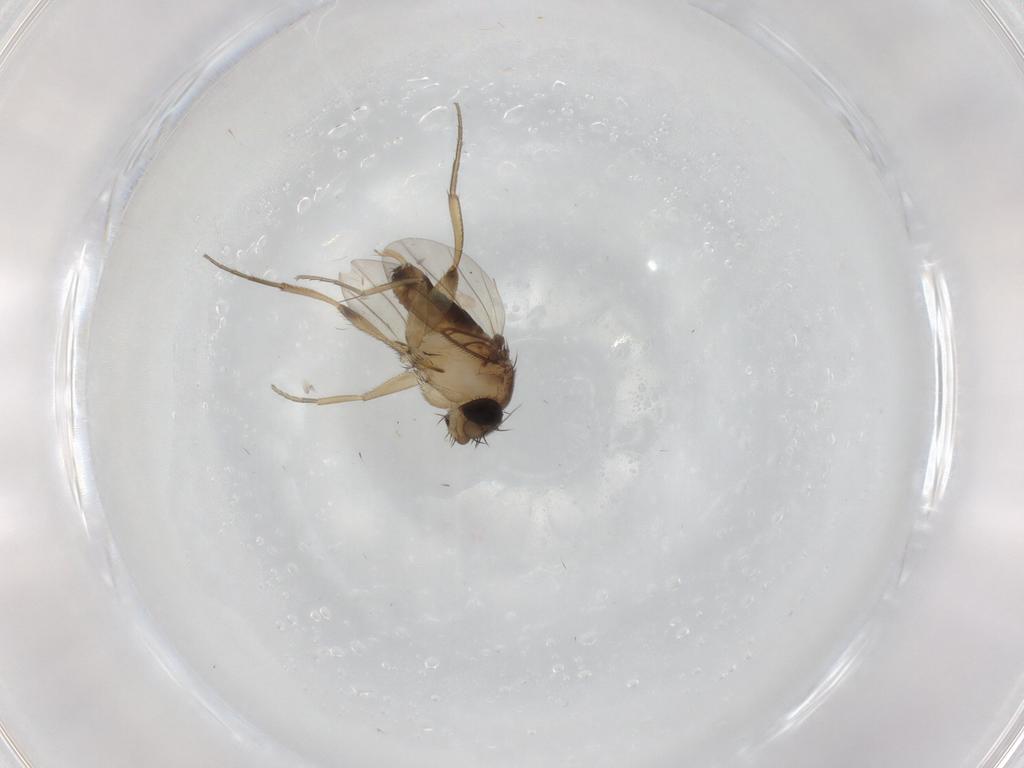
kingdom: Animalia
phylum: Arthropoda
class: Insecta
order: Diptera
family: Phoridae
